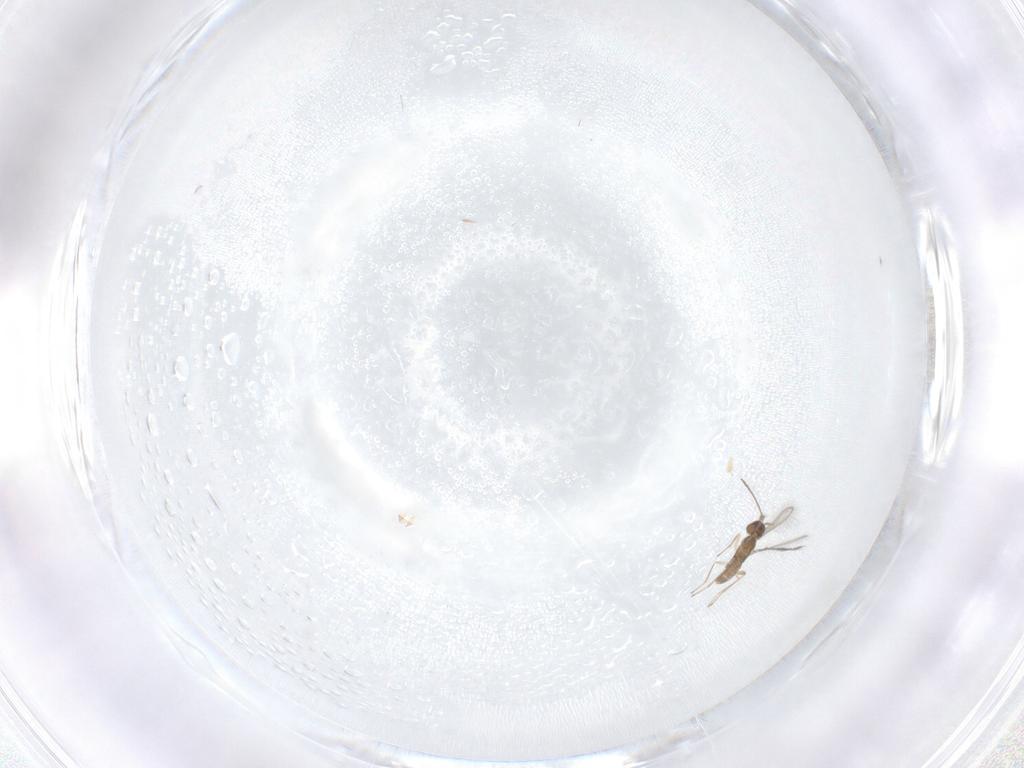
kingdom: Animalia
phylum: Arthropoda
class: Insecta
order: Hymenoptera
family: Mymaridae
